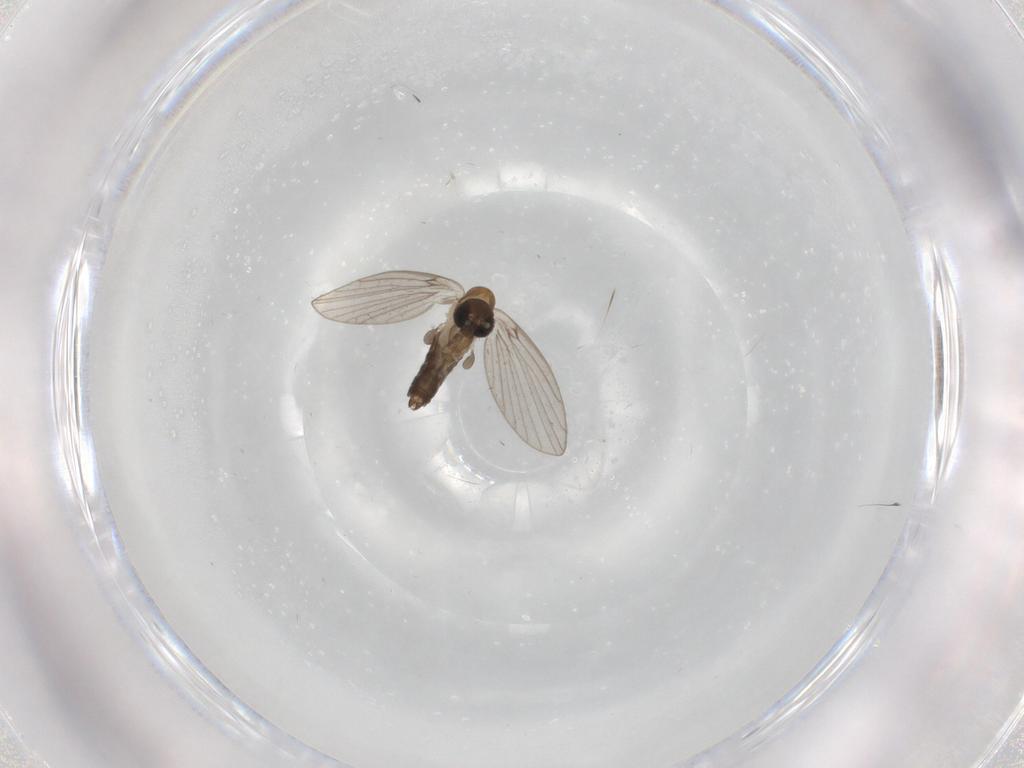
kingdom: Animalia
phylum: Arthropoda
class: Insecta
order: Diptera
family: Psychodidae
